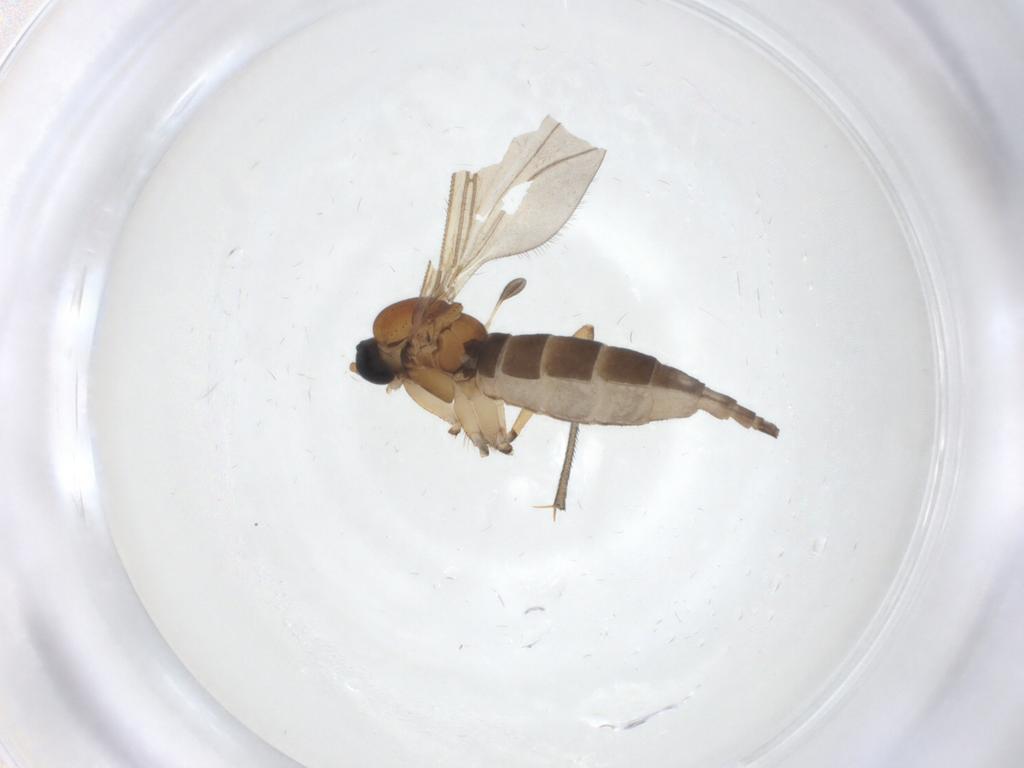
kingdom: Animalia
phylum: Arthropoda
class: Insecta
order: Diptera
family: Sciaridae
